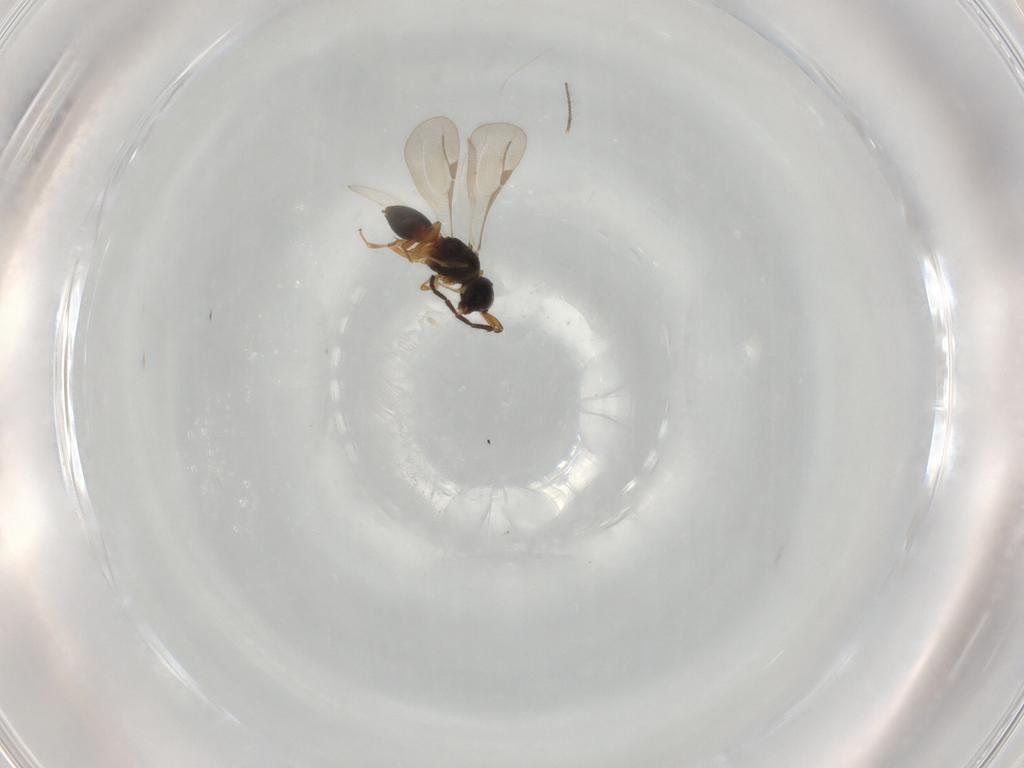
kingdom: Animalia
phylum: Arthropoda
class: Insecta
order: Hymenoptera
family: Megaspilidae
